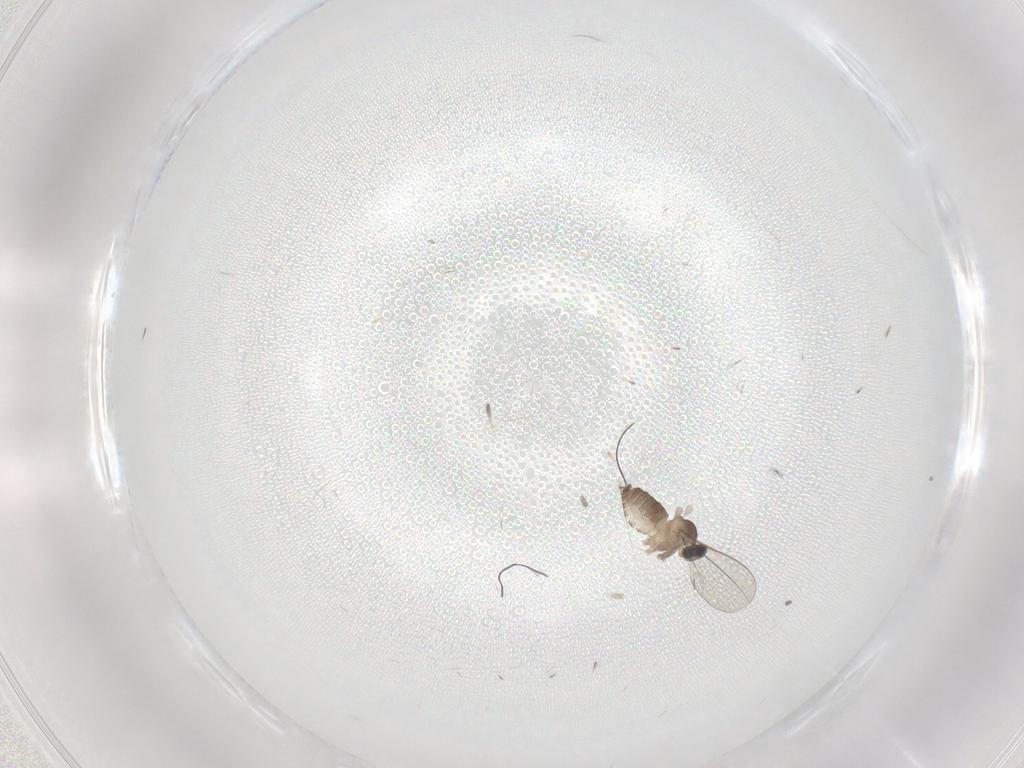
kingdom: Animalia
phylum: Arthropoda
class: Insecta
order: Diptera
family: Cecidomyiidae
